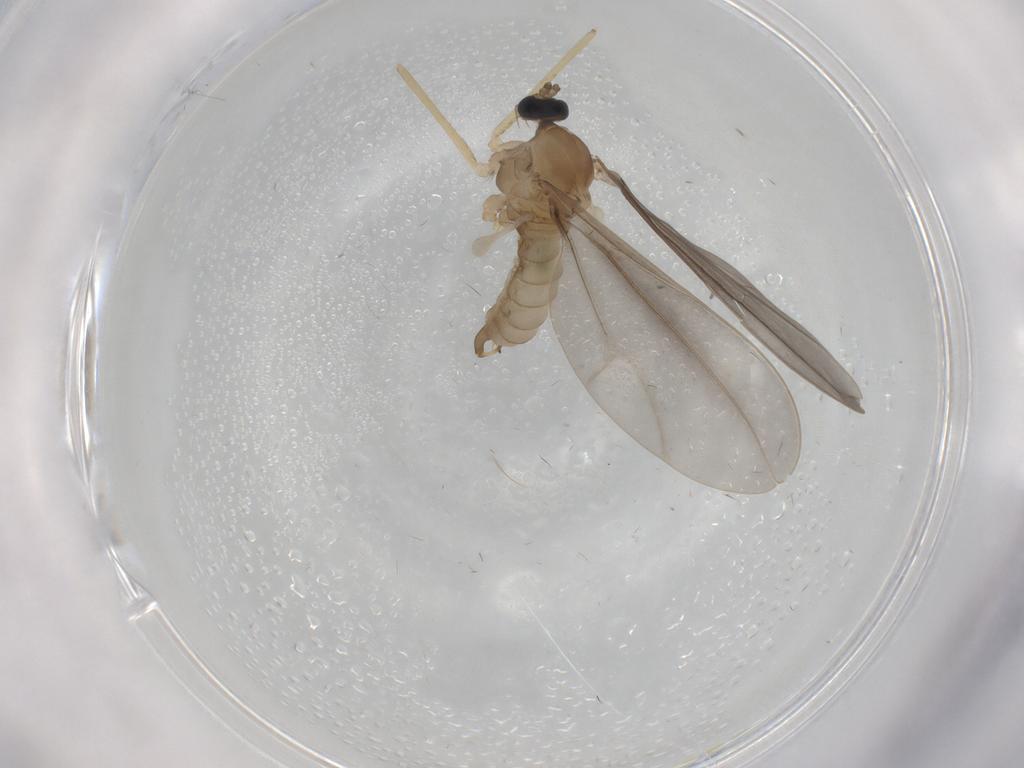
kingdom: Animalia
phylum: Arthropoda
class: Insecta
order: Diptera
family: Cecidomyiidae
